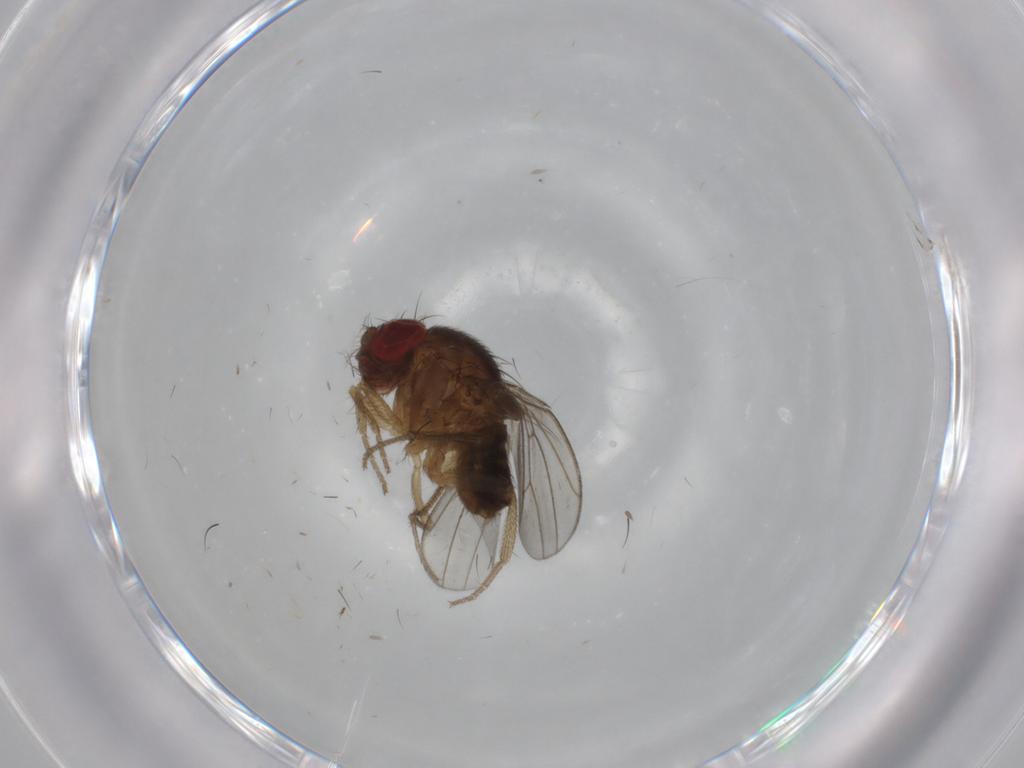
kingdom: Animalia
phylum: Arthropoda
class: Insecta
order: Diptera
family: Drosophilidae
